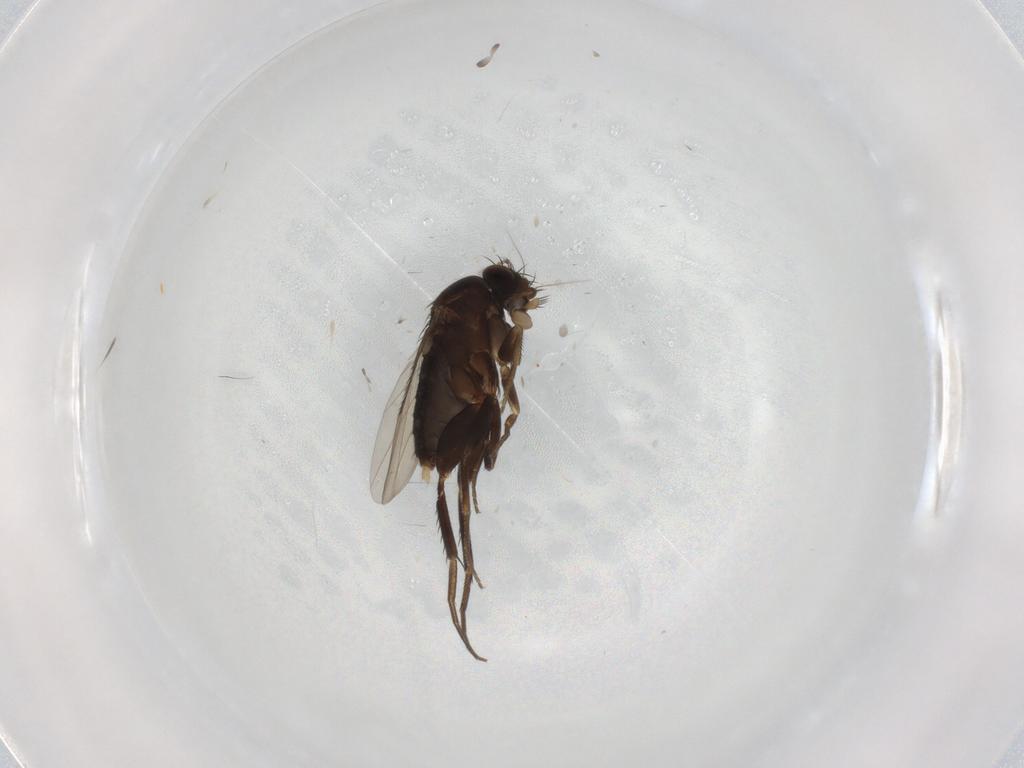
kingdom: Animalia
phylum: Arthropoda
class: Insecta
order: Diptera
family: Phoridae
